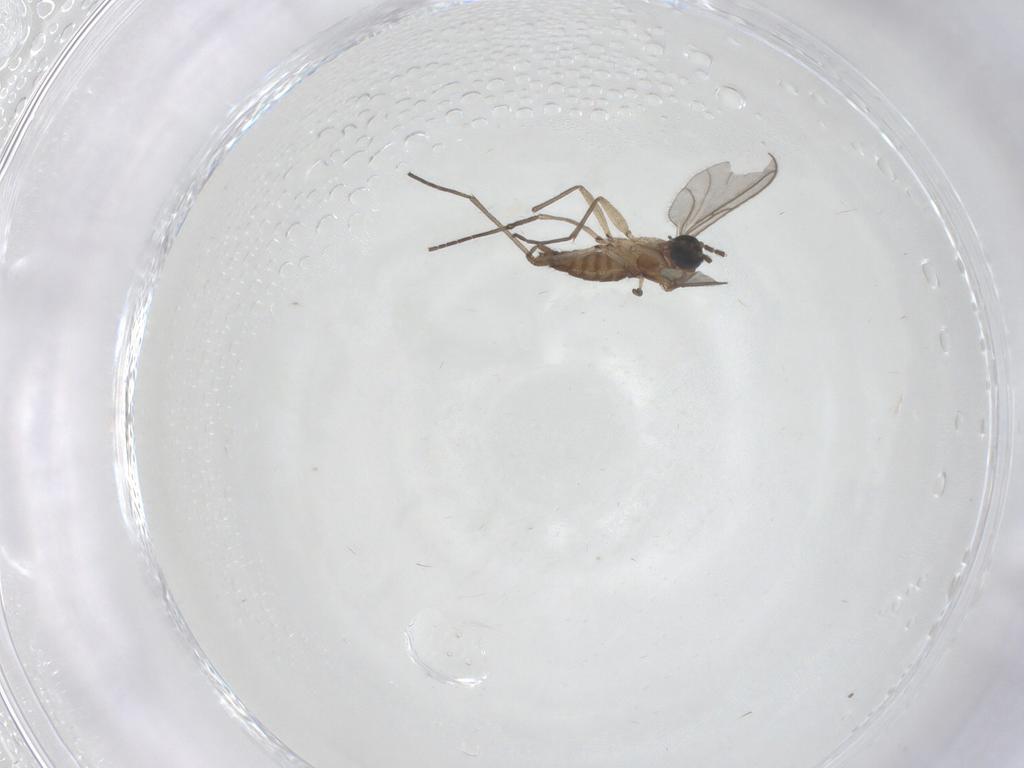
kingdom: Animalia
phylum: Arthropoda
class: Insecta
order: Diptera
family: Sciaridae
